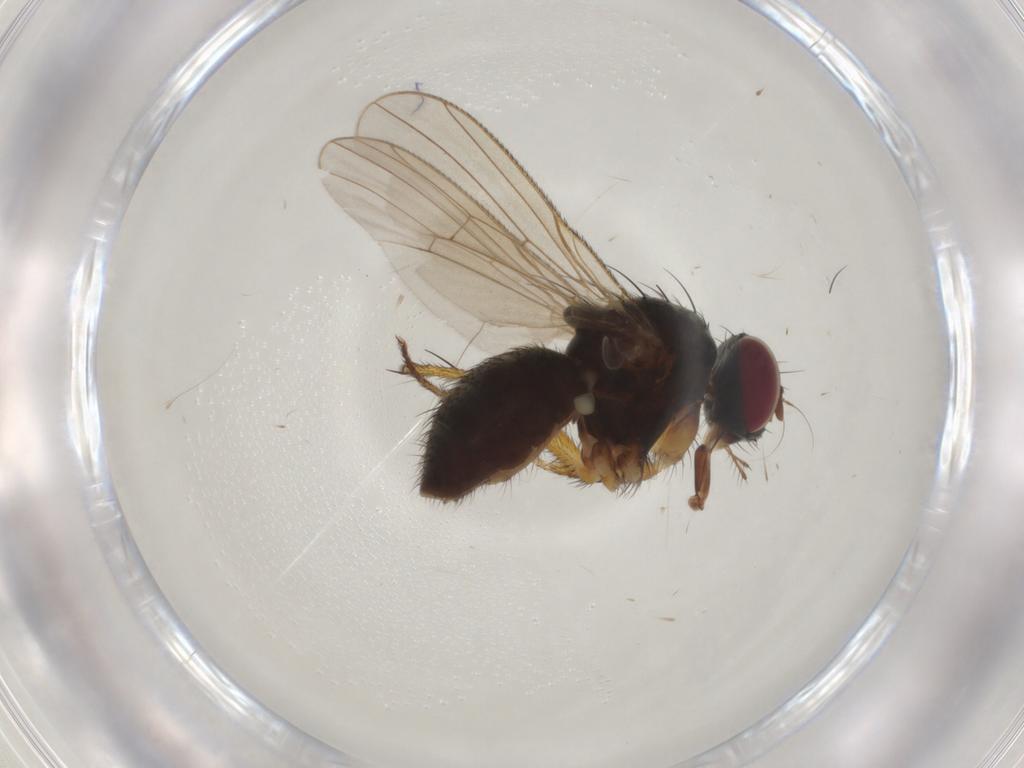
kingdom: Animalia
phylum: Arthropoda
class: Insecta
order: Diptera
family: Muscidae
